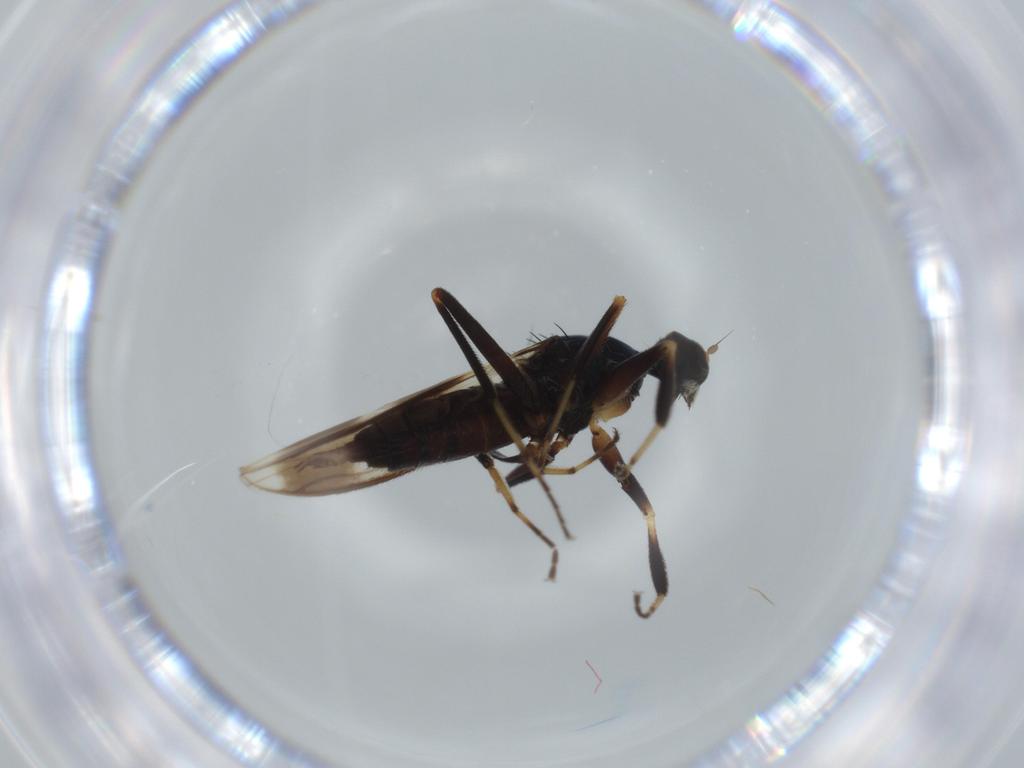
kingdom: Animalia
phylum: Arthropoda
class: Insecta
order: Diptera
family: Hybotidae
